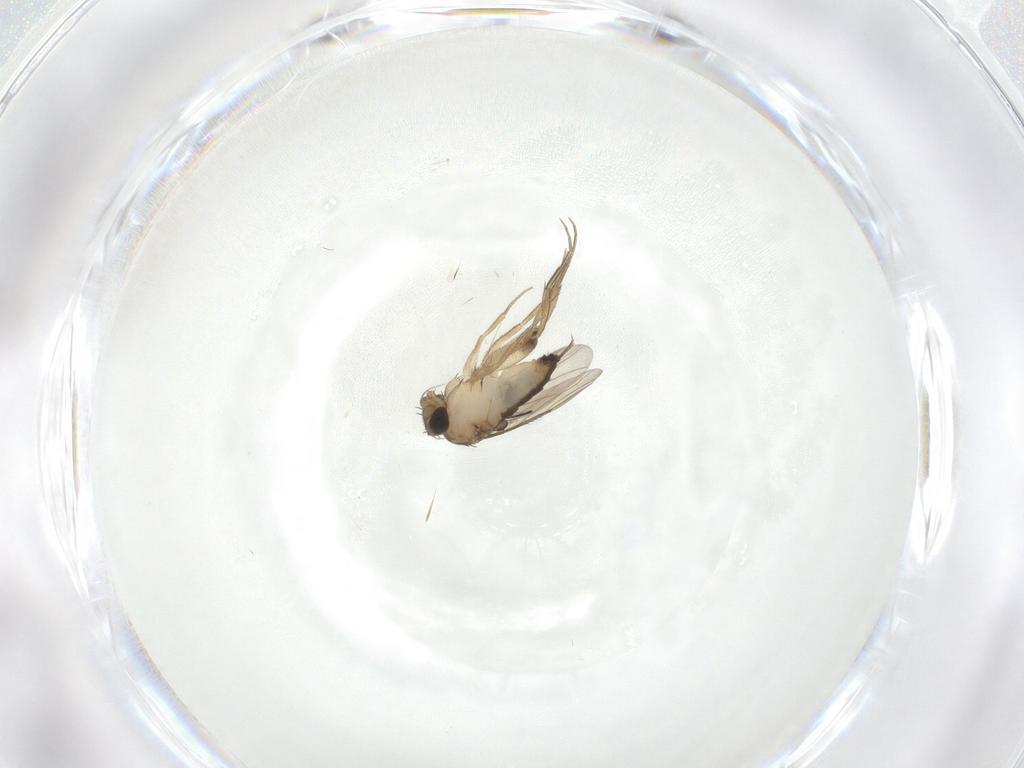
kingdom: Animalia
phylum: Arthropoda
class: Insecta
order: Diptera
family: Phoridae
